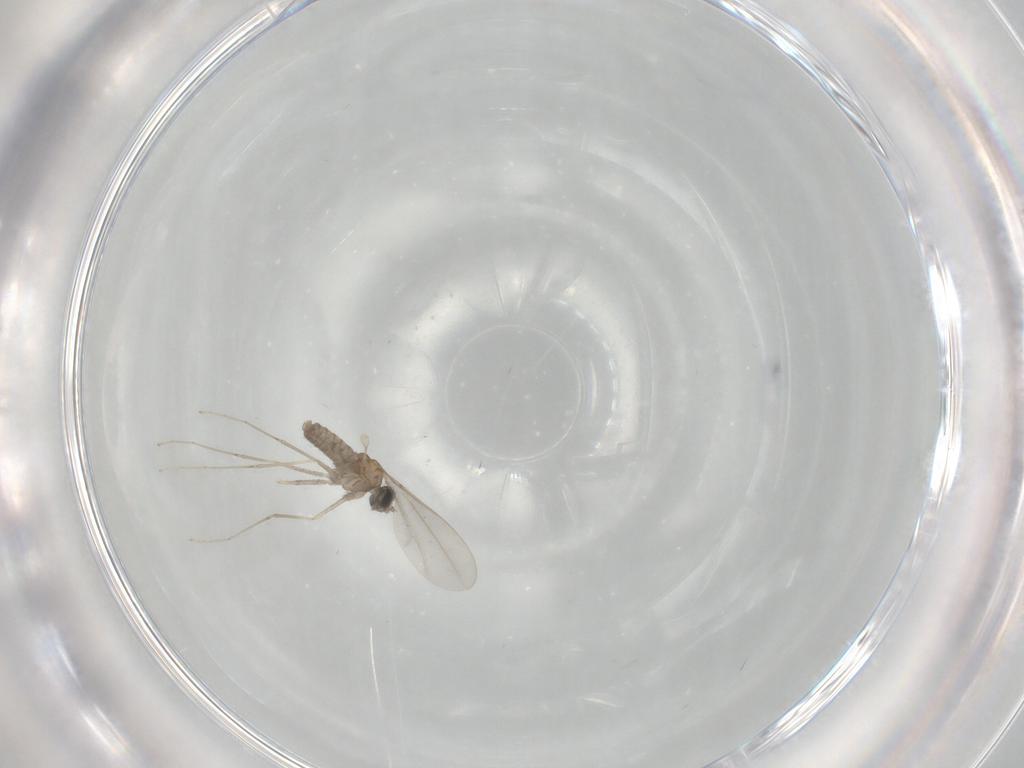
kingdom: Animalia
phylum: Arthropoda
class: Insecta
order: Diptera
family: Cecidomyiidae
